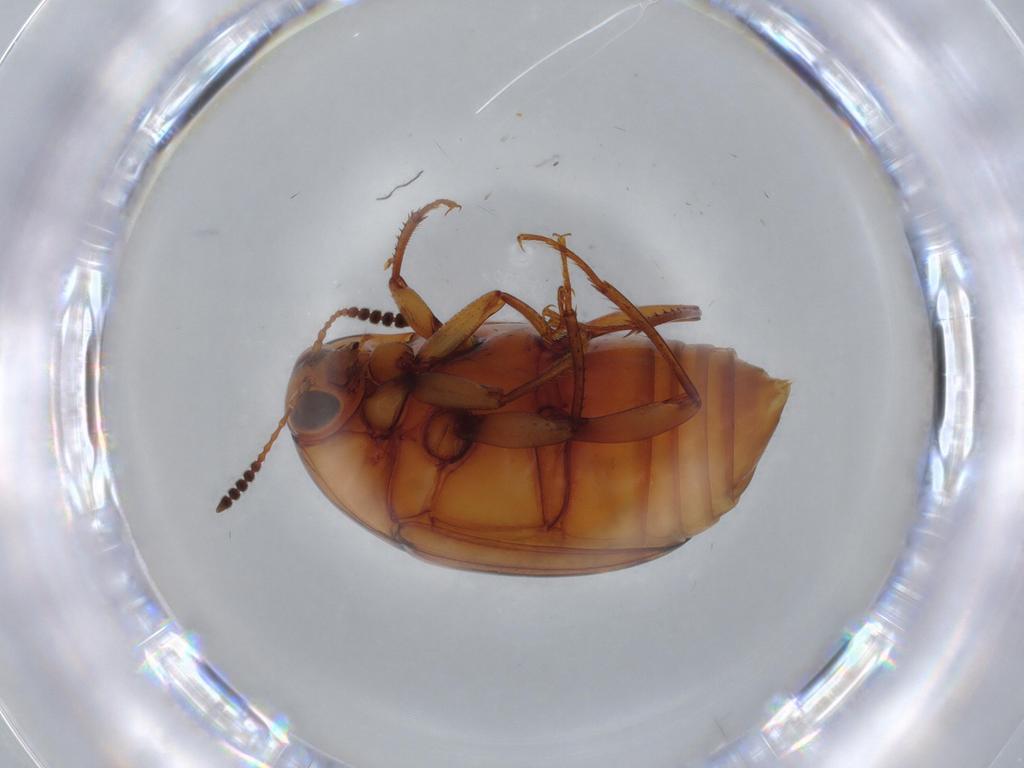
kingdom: Animalia
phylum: Arthropoda
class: Insecta
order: Coleoptera
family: Staphylinidae
